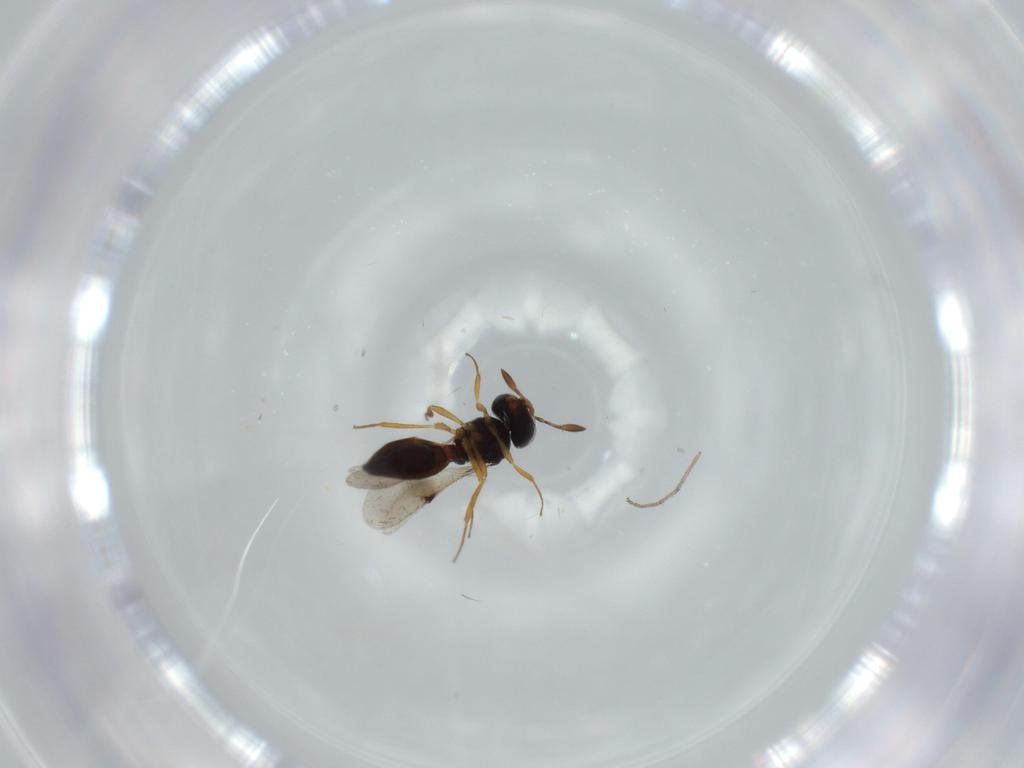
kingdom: Animalia
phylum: Arthropoda
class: Insecta
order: Hymenoptera
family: Pteromalidae
